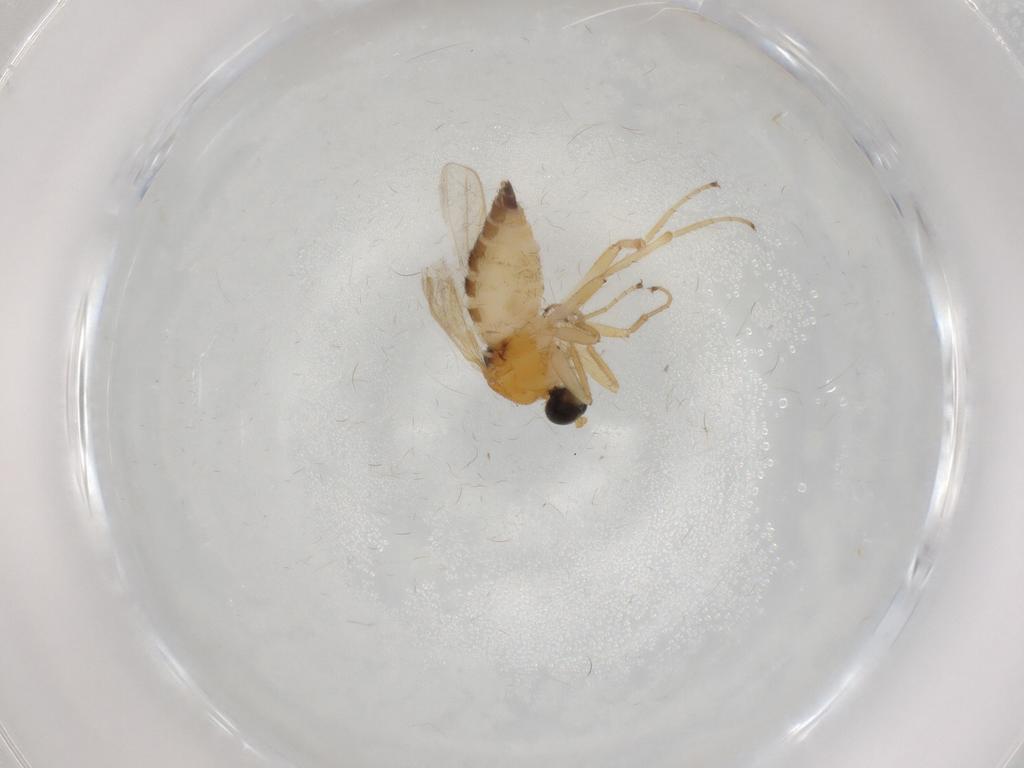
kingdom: Animalia
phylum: Arthropoda
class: Insecta
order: Diptera
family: Hybotidae
